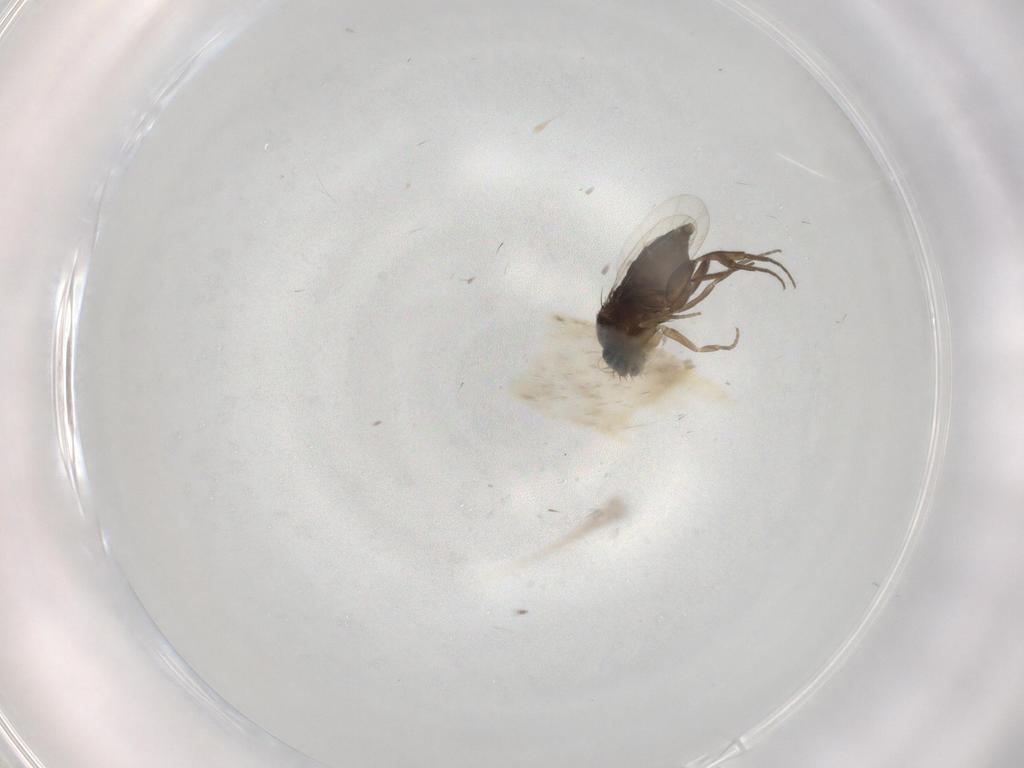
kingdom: Animalia
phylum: Arthropoda
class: Insecta
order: Diptera
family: Phoridae
